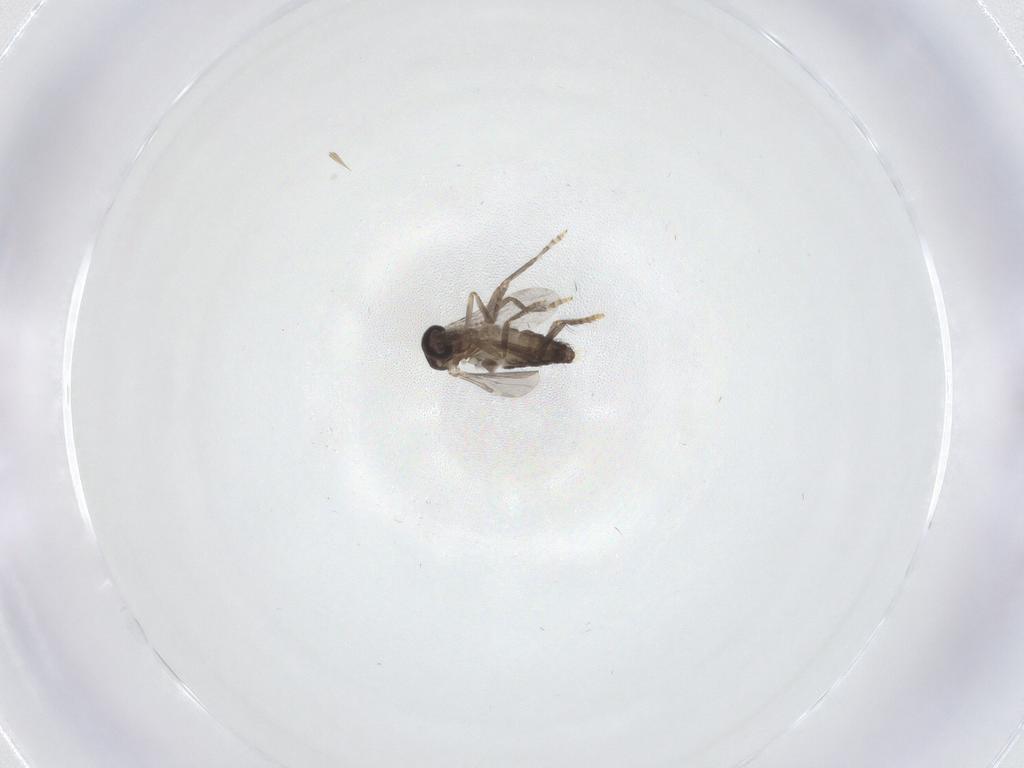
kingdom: Animalia
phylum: Arthropoda
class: Insecta
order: Diptera
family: Ceratopogonidae
